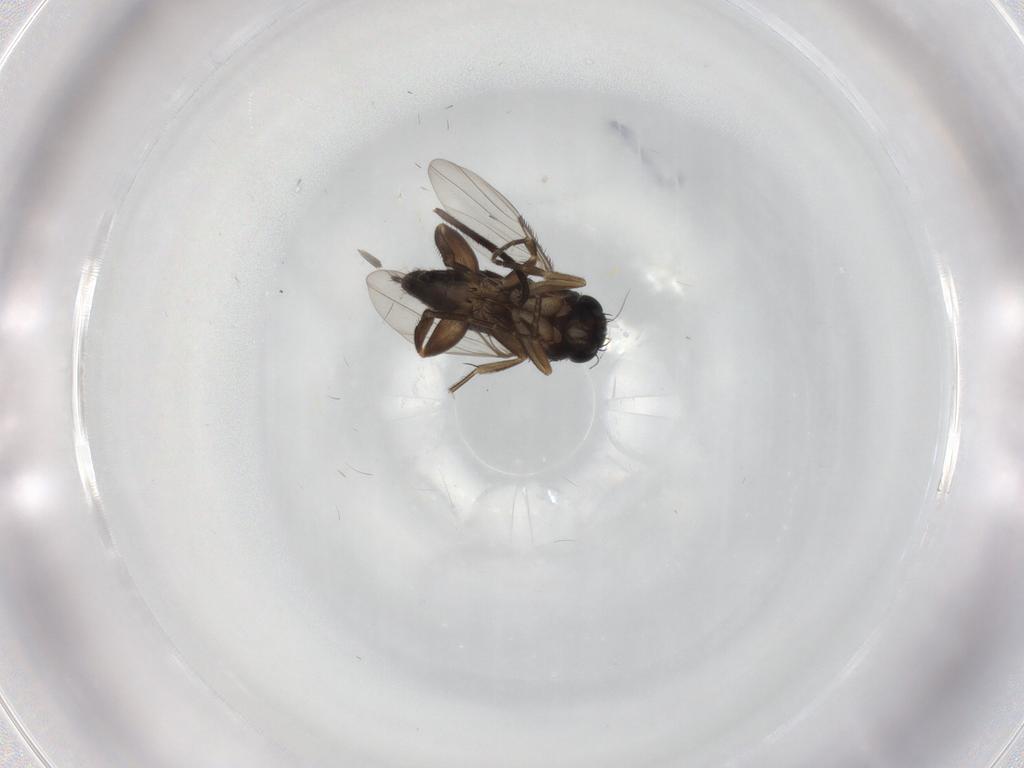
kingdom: Animalia
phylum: Arthropoda
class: Insecta
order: Diptera
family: Phoridae
